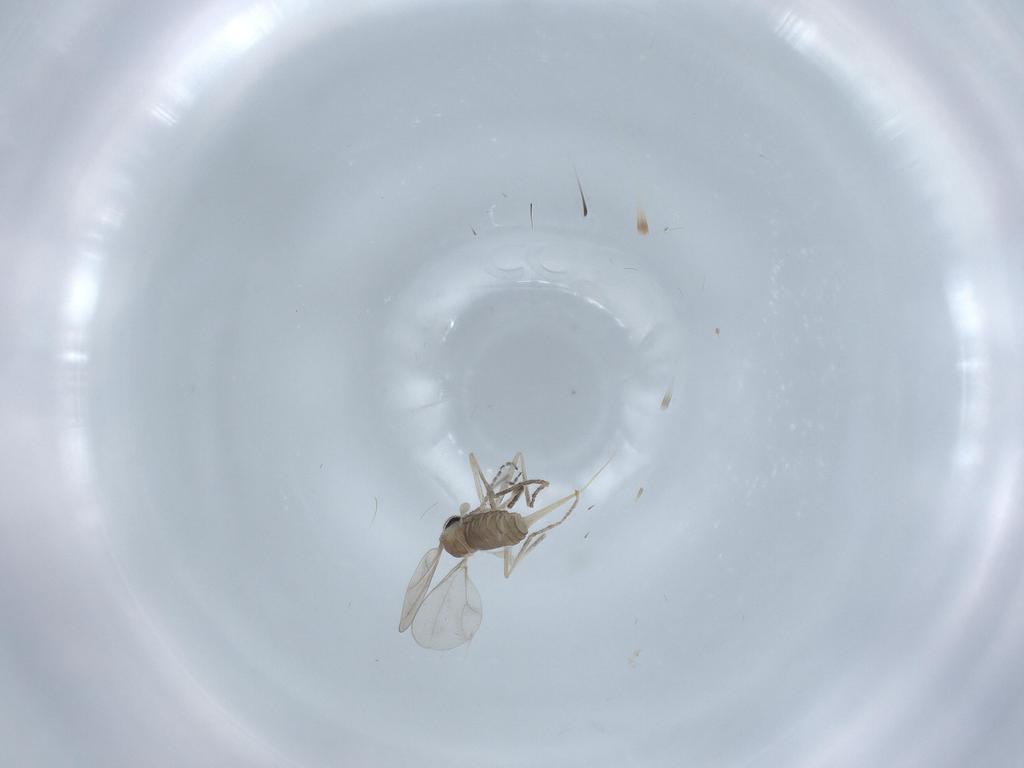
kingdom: Animalia
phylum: Arthropoda
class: Insecta
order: Diptera
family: Cecidomyiidae
